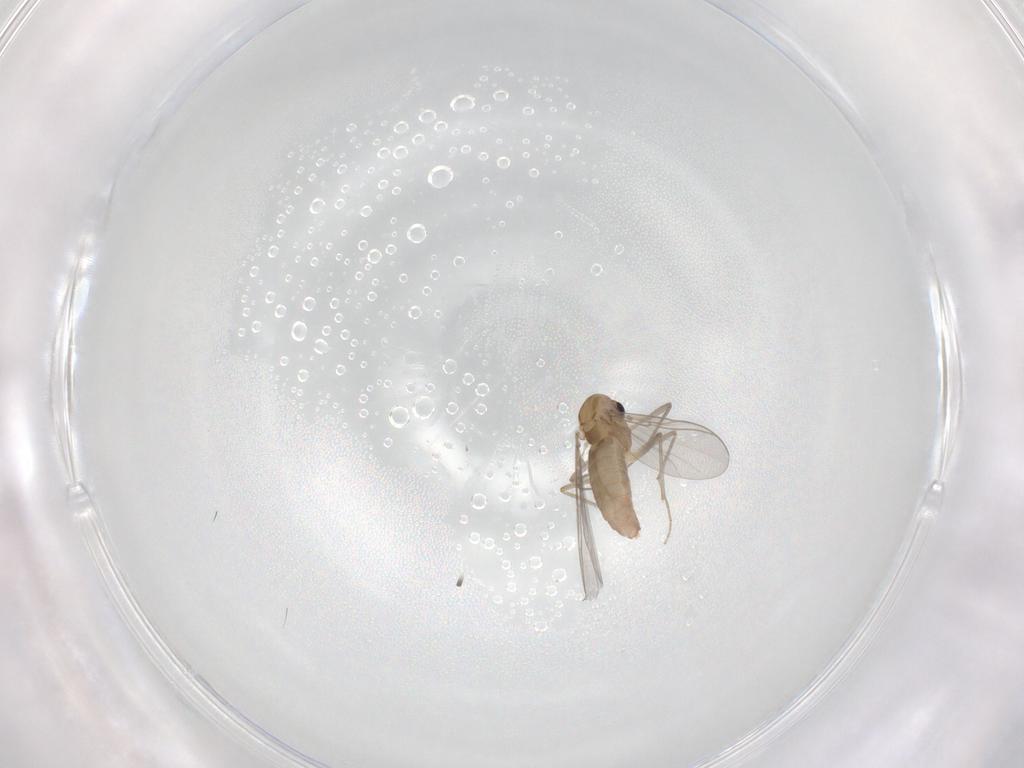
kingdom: Animalia
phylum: Arthropoda
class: Insecta
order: Diptera
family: Chironomidae
